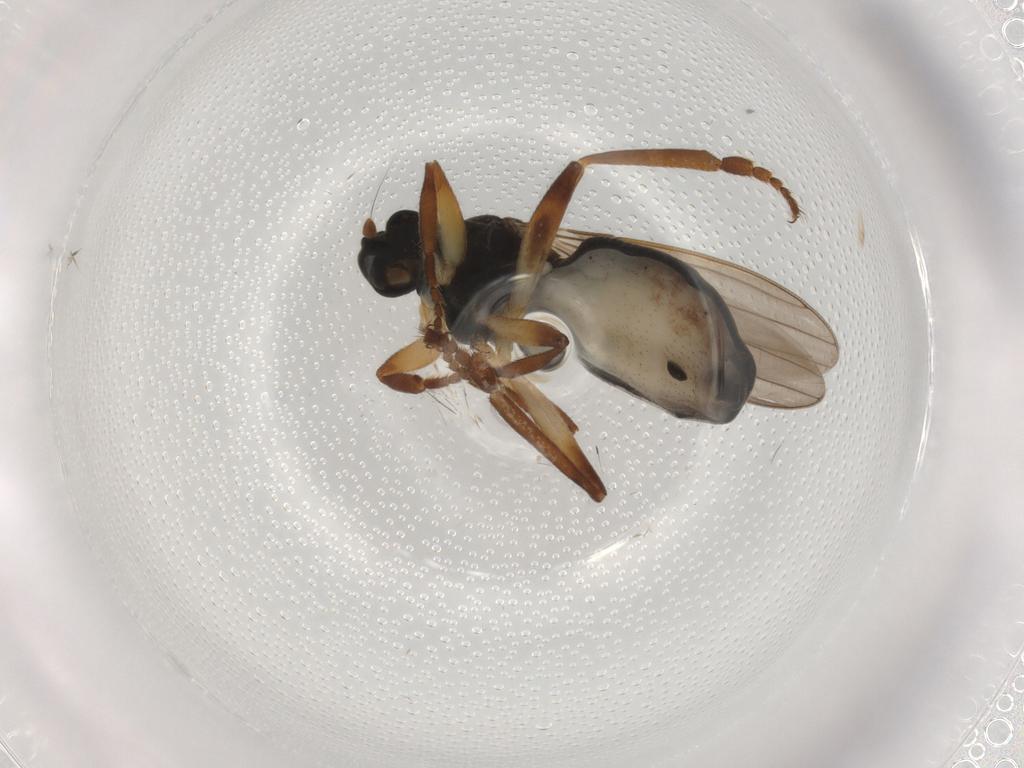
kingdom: Animalia
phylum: Arthropoda
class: Insecta
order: Diptera
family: Sphaeroceridae
